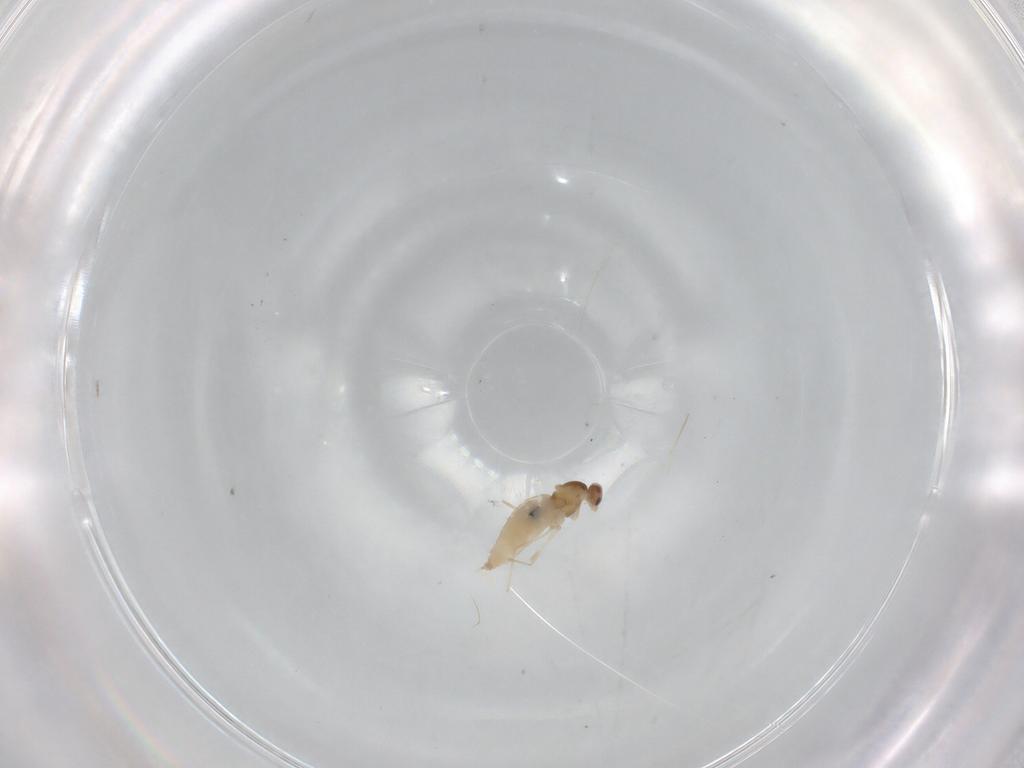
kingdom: Animalia
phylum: Arthropoda
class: Insecta
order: Diptera
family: Cecidomyiidae
